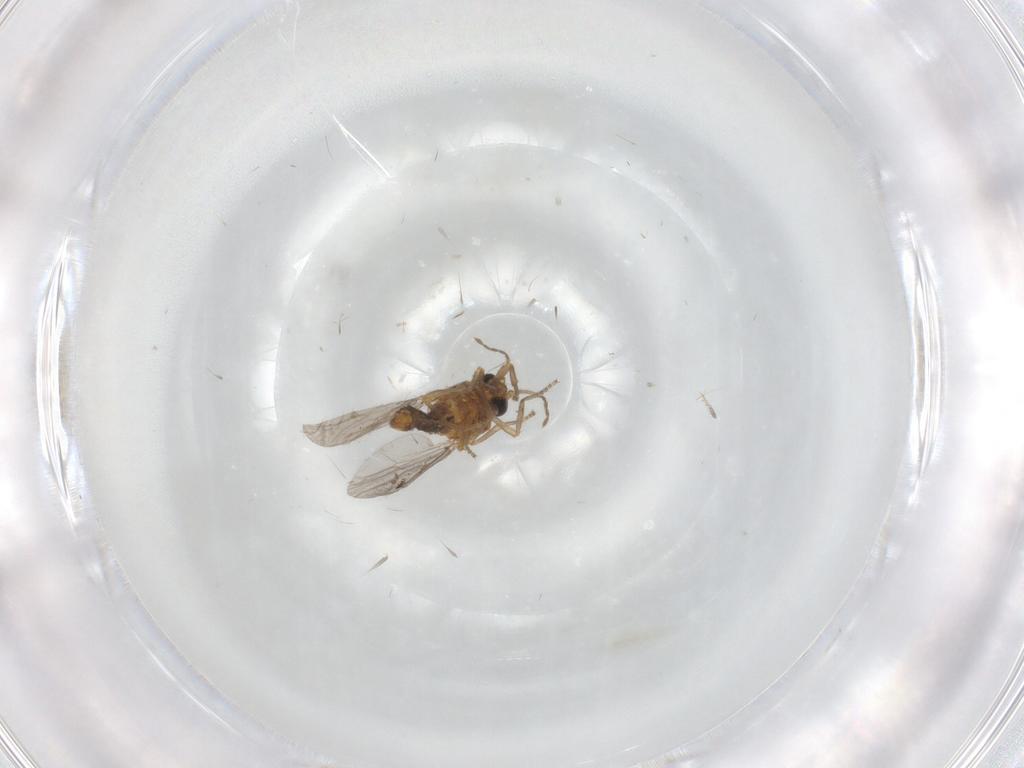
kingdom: Animalia
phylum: Arthropoda
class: Insecta
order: Diptera
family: Ceratopogonidae
